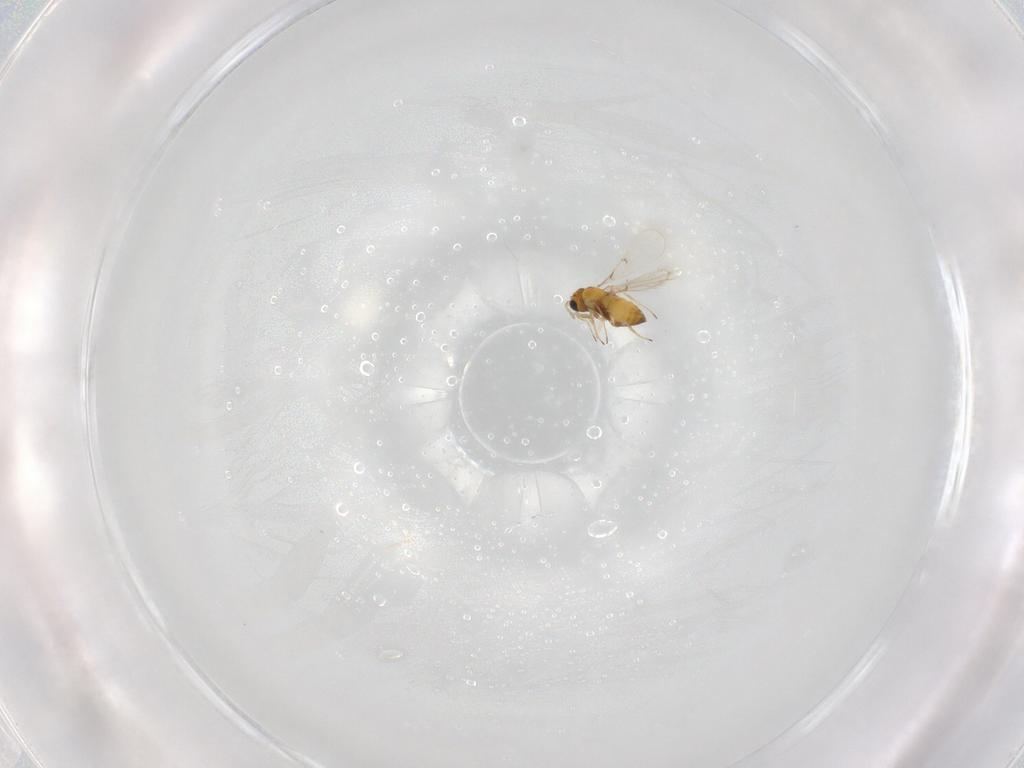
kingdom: Animalia
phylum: Arthropoda
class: Insecta
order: Hymenoptera
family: Trichogrammatidae
